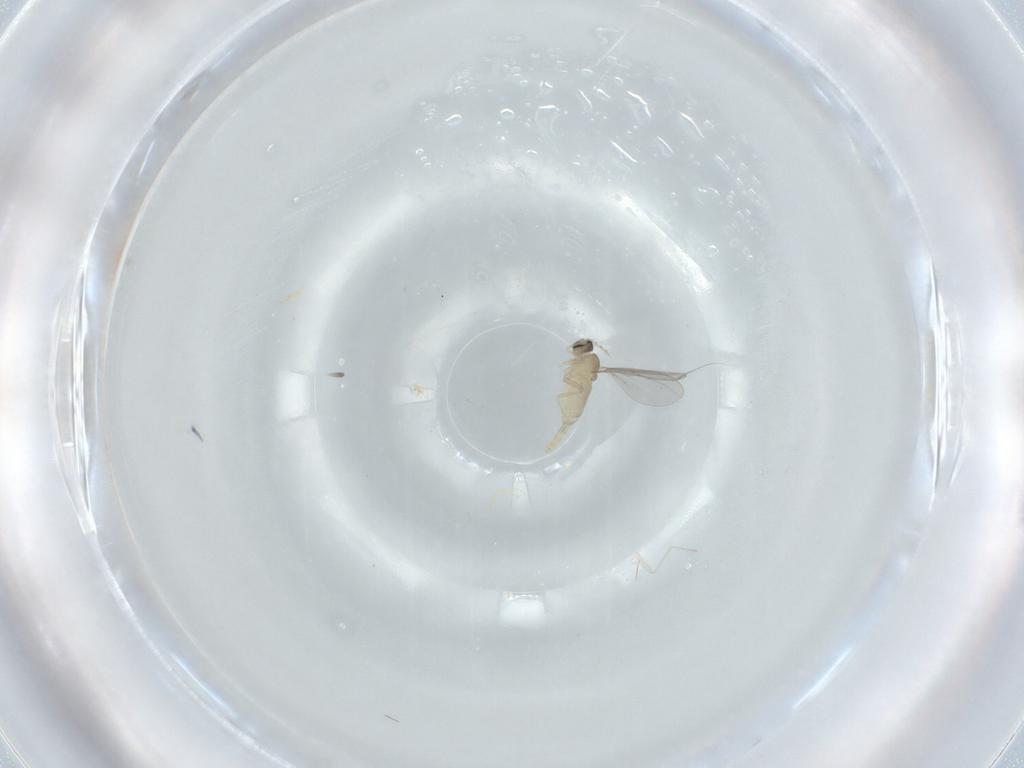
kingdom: Animalia
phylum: Arthropoda
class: Insecta
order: Diptera
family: Cecidomyiidae
